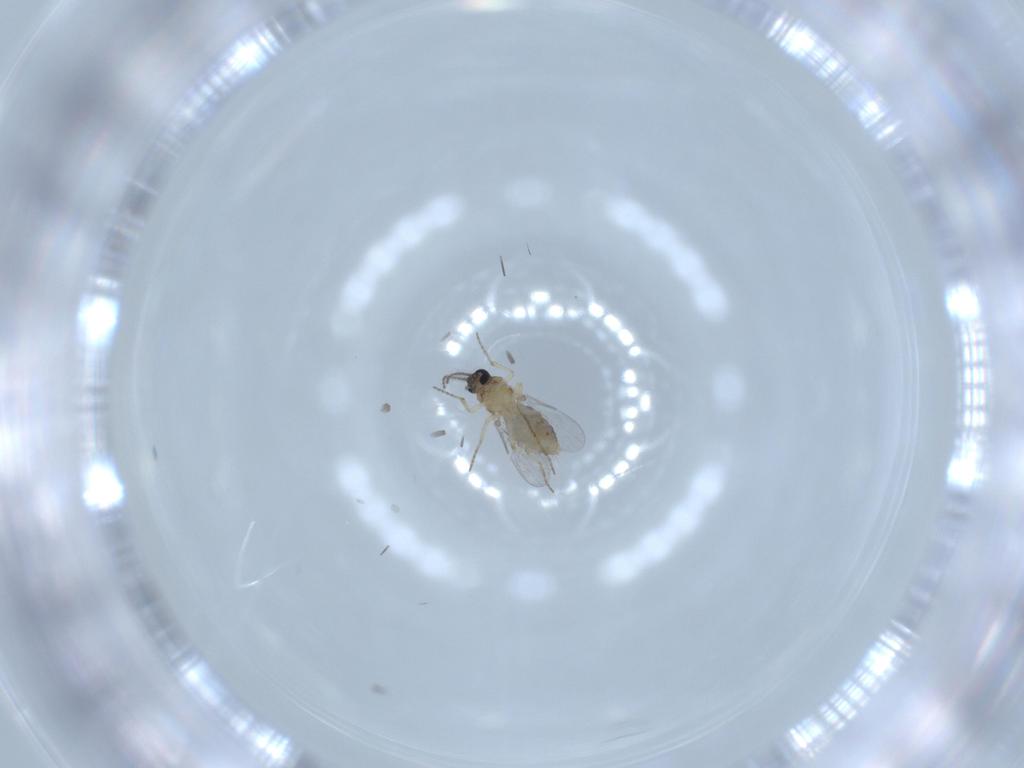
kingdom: Animalia
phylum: Arthropoda
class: Insecta
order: Diptera
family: Ceratopogonidae
